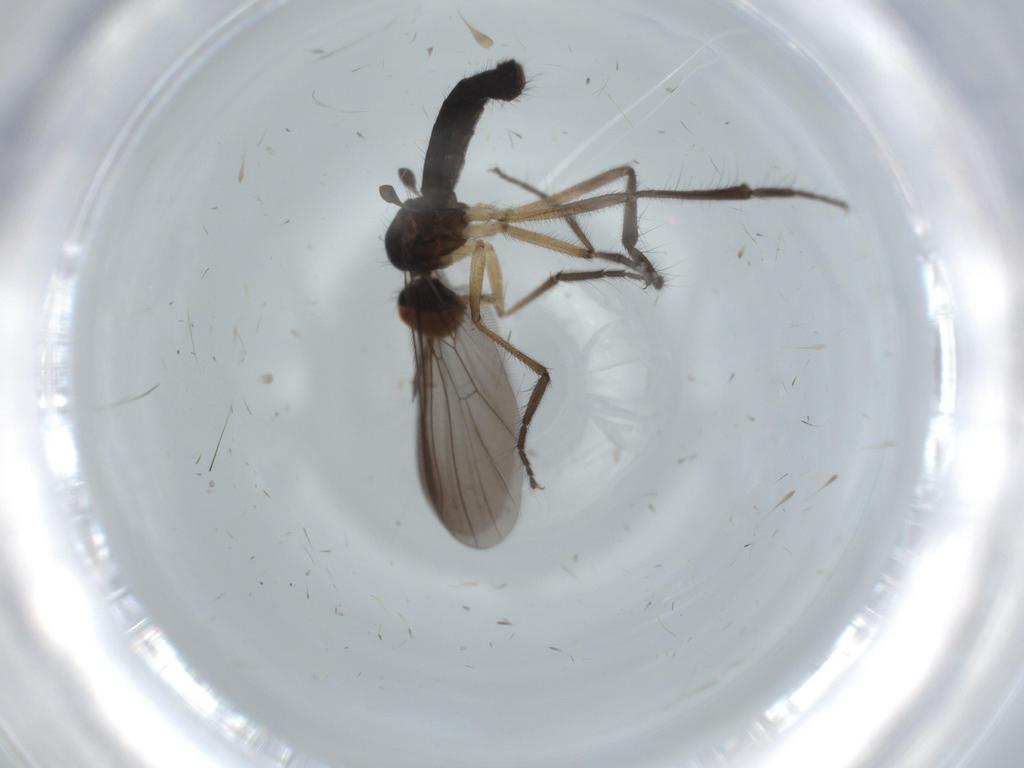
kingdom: Animalia
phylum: Arthropoda
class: Insecta
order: Diptera
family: Empididae
